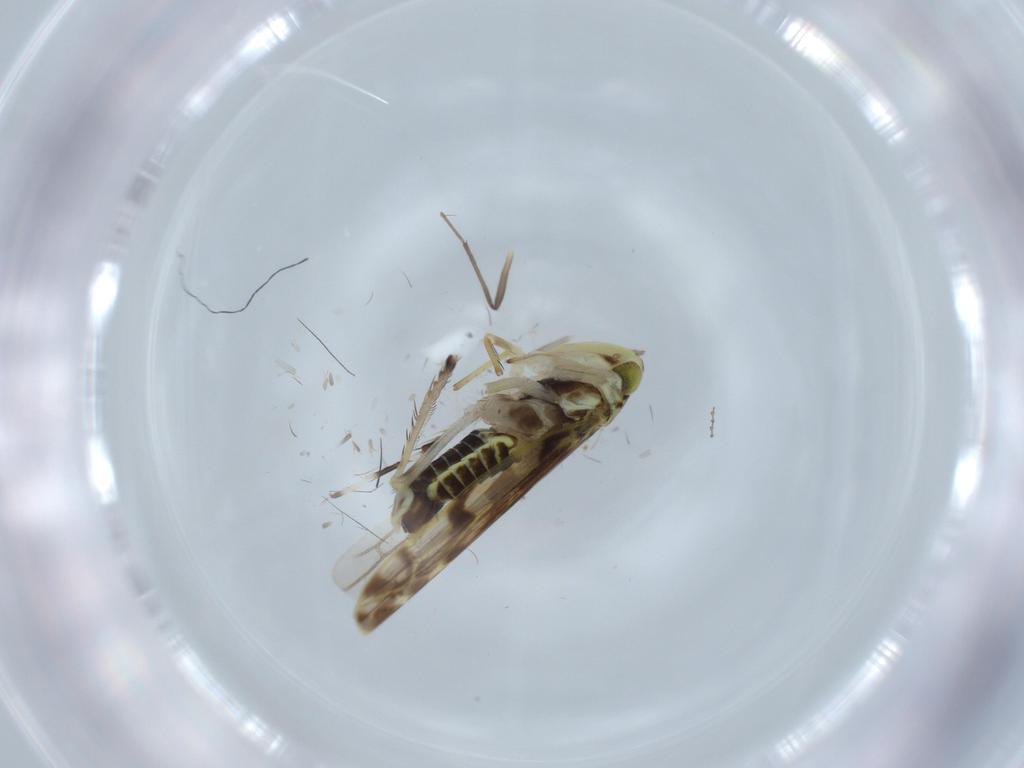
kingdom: Animalia
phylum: Arthropoda
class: Insecta
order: Hemiptera
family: Cicadellidae
